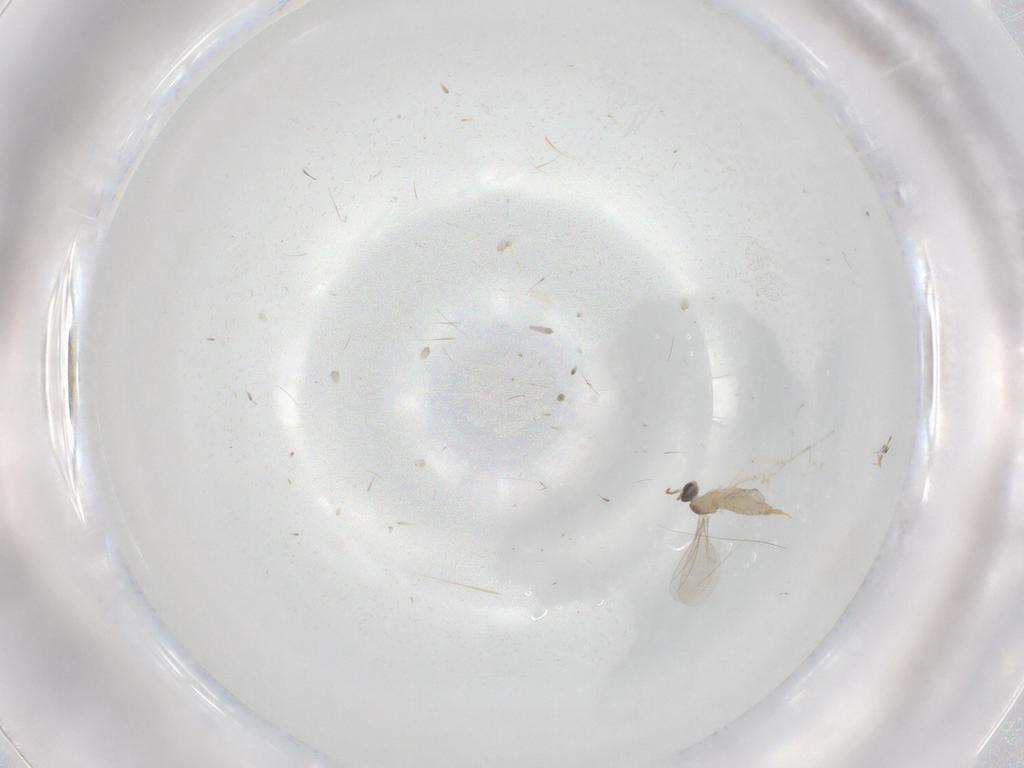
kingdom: Animalia
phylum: Arthropoda
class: Insecta
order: Diptera
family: Cecidomyiidae
